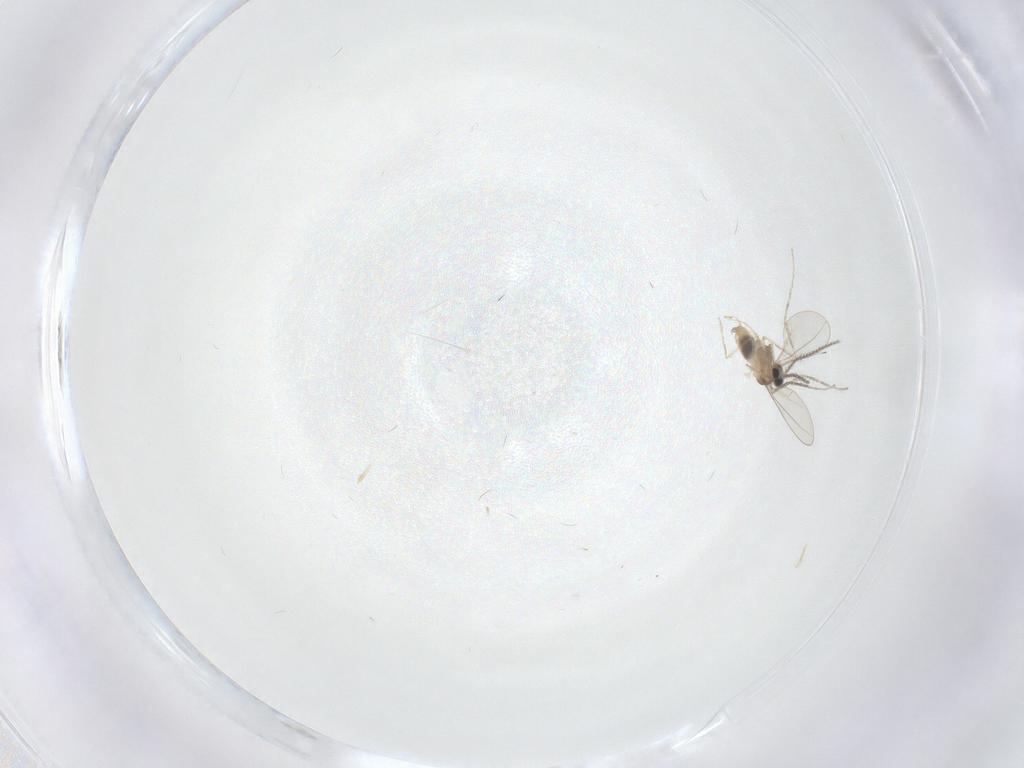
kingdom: Animalia
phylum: Arthropoda
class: Insecta
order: Diptera
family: Cecidomyiidae
